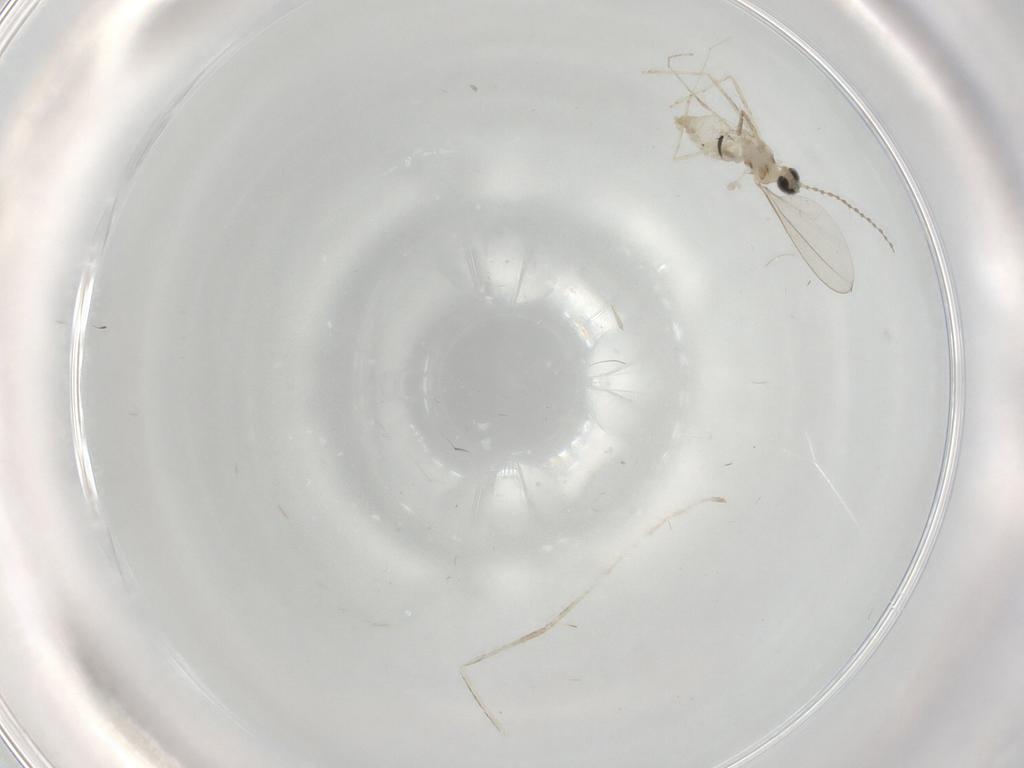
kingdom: Animalia
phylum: Arthropoda
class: Insecta
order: Diptera
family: Cecidomyiidae
